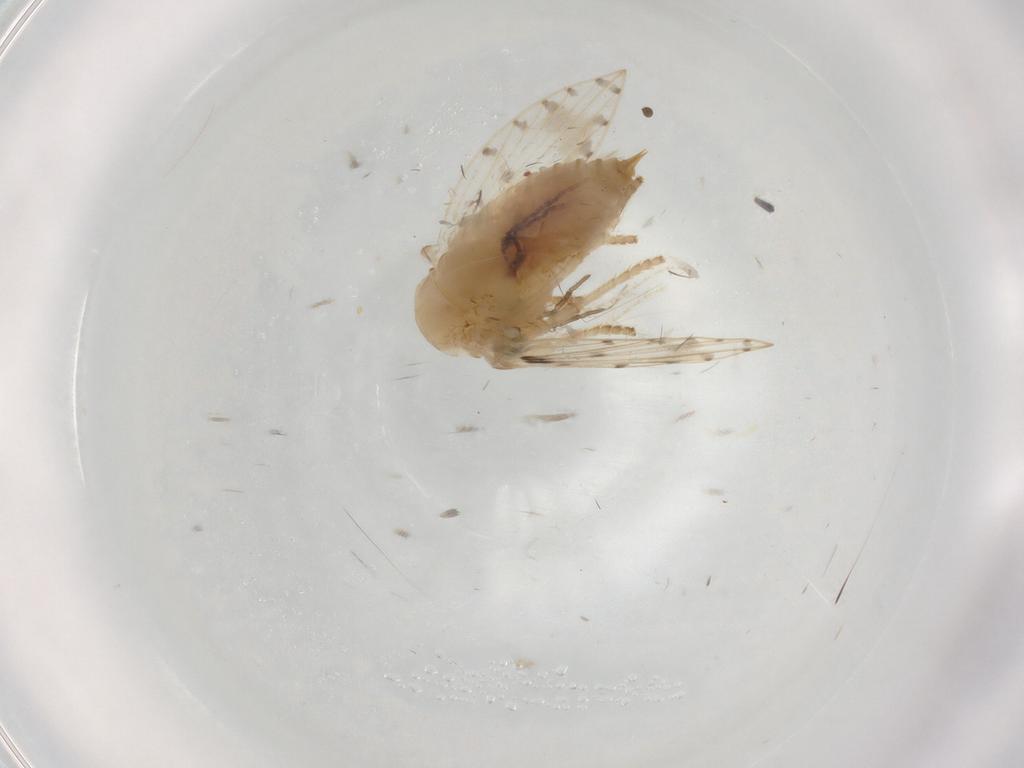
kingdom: Animalia
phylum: Arthropoda
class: Insecta
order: Diptera
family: Psychodidae
